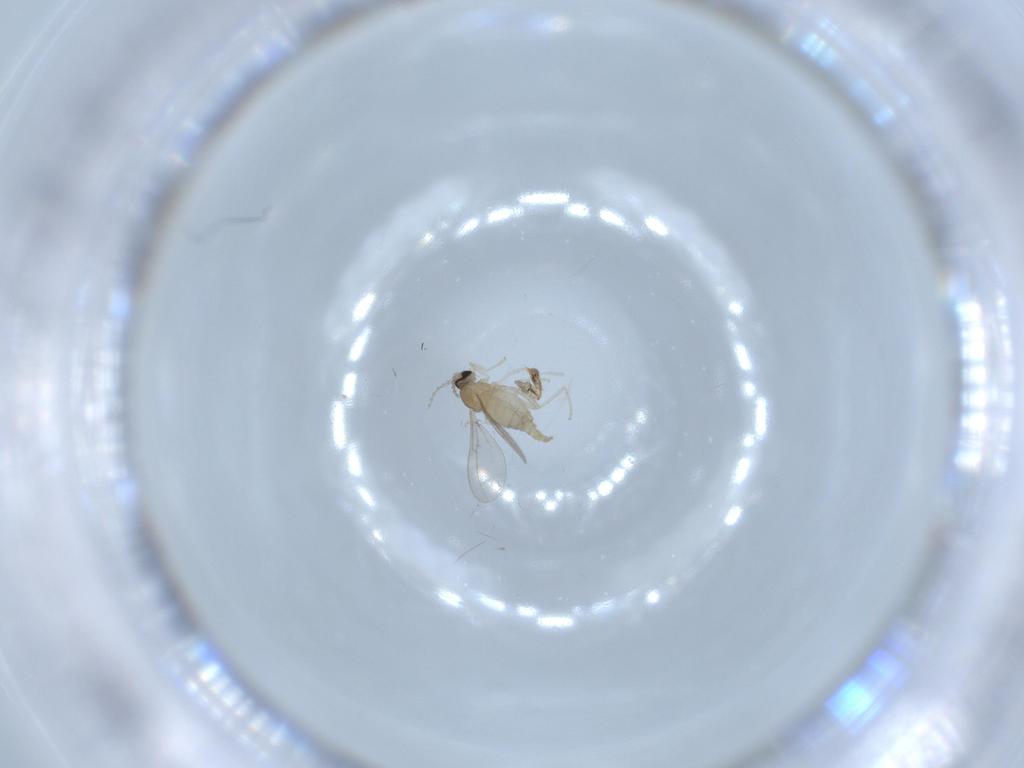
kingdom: Animalia
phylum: Arthropoda
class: Insecta
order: Diptera
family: Cecidomyiidae
